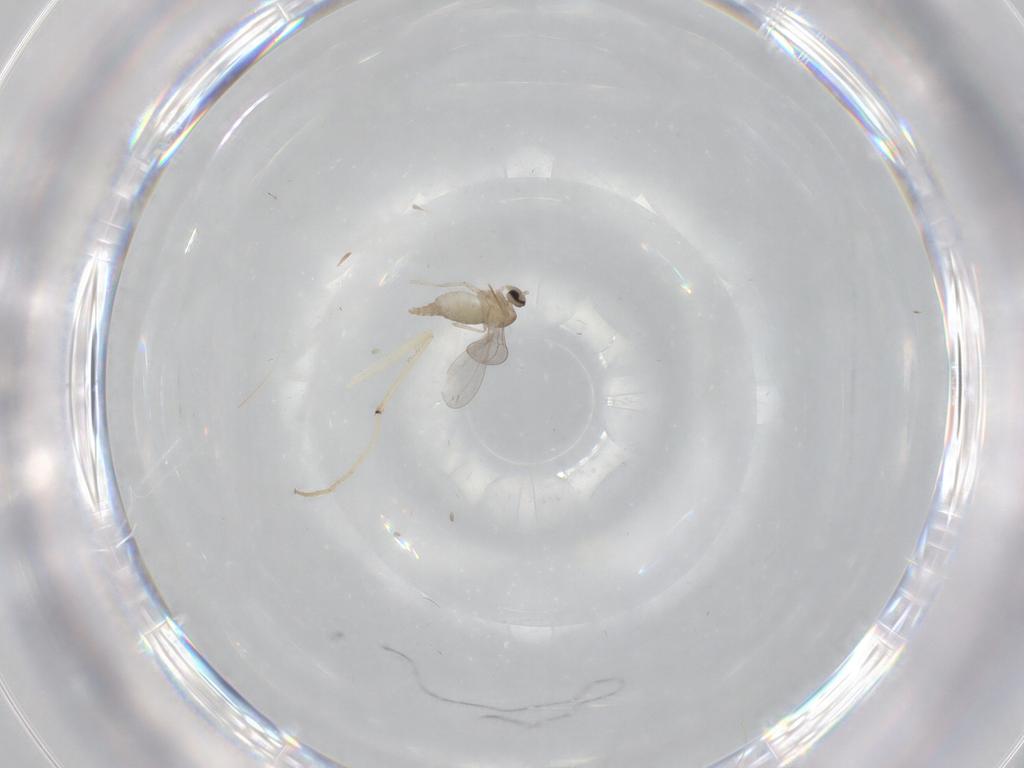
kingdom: Animalia
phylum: Arthropoda
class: Insecta
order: Diptera
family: Cecidomyiidae
